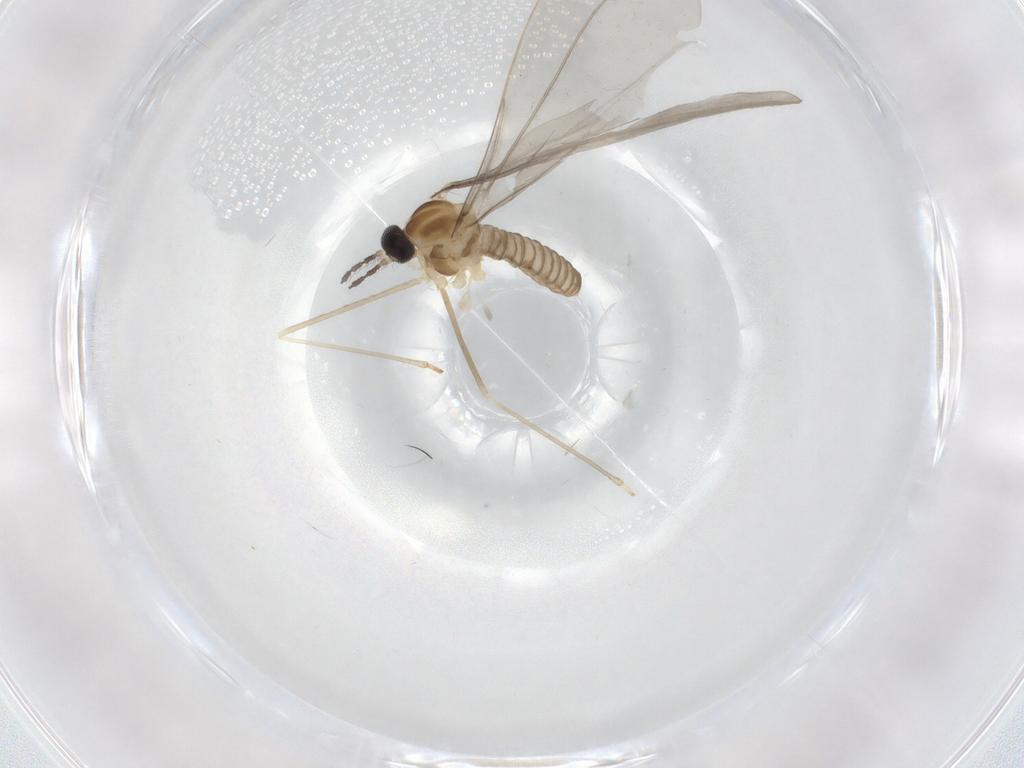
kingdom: Animalia
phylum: Arthropoda
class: Insecta
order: Diptera
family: Cecidomyiidae
